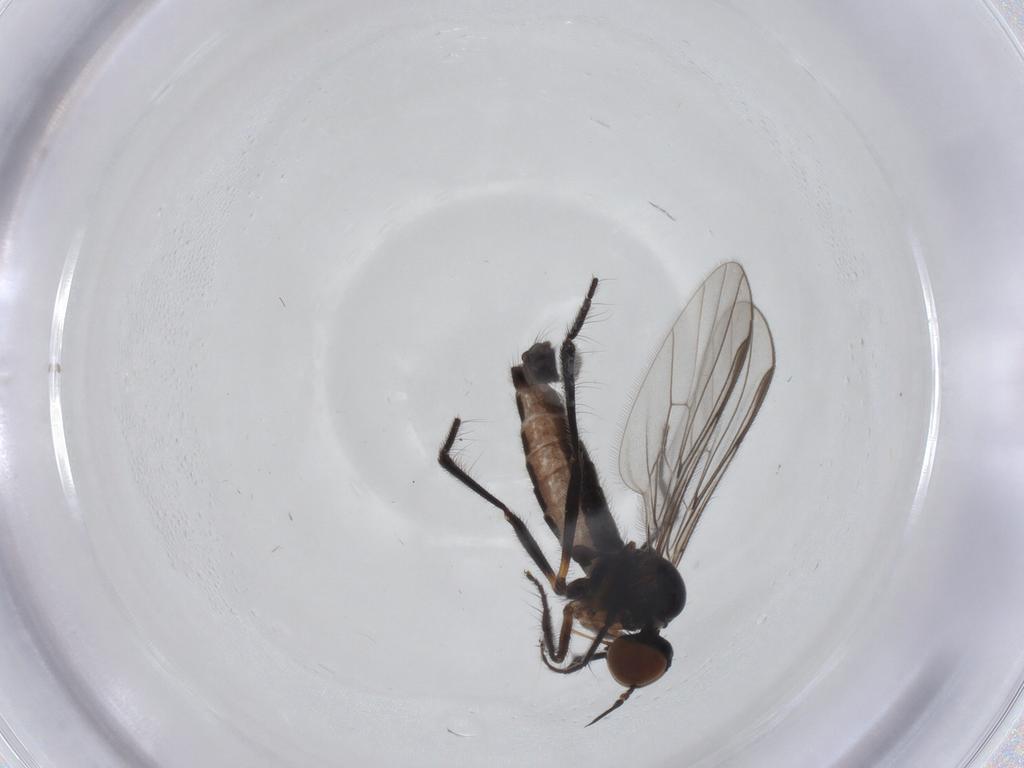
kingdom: Animalia
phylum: Arthropoda
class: Insecta
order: Diptera
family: Empididae
